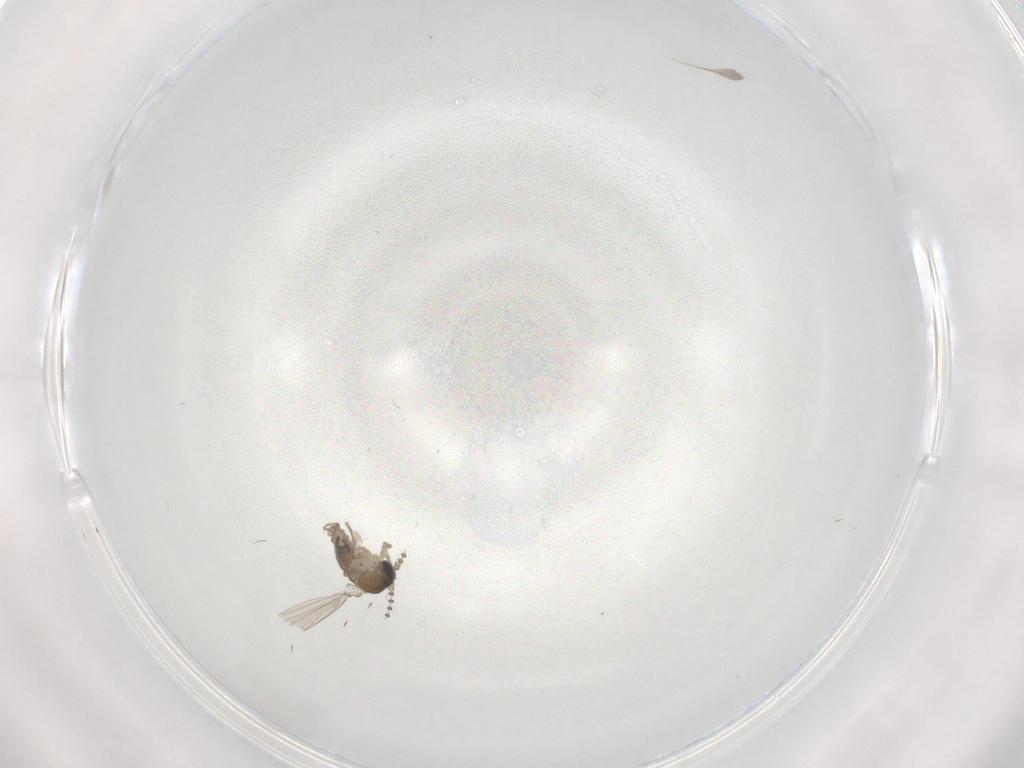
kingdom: Animalia
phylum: Arthropoda
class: Insecta
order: Diptera
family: Psychodidae
